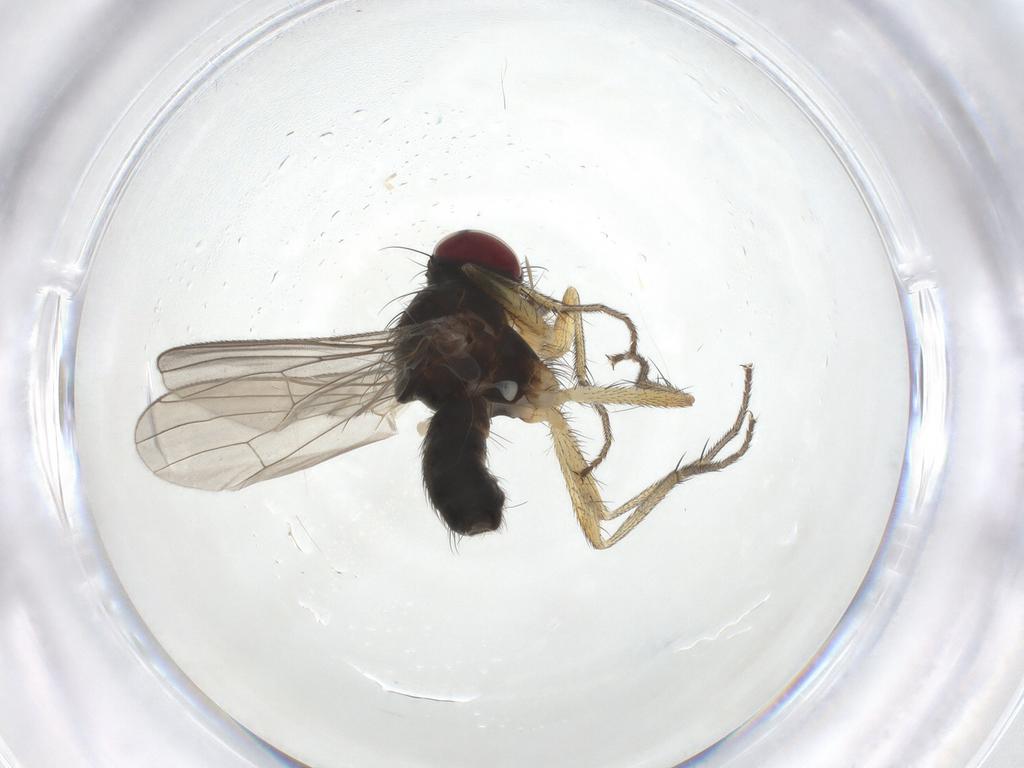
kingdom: Animalia
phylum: Arthropoda
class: Insecta
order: Diptera
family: Muscidae
